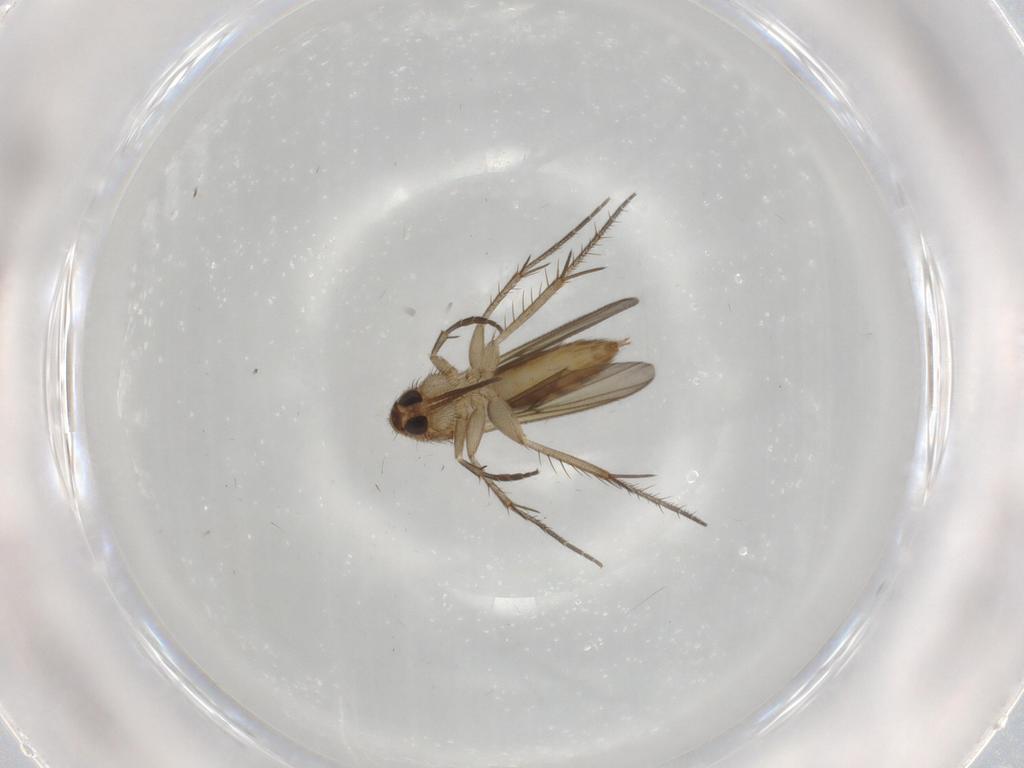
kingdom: Animalia
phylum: Arthropoda
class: Insecta
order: Diptera
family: Mycetophilidae
